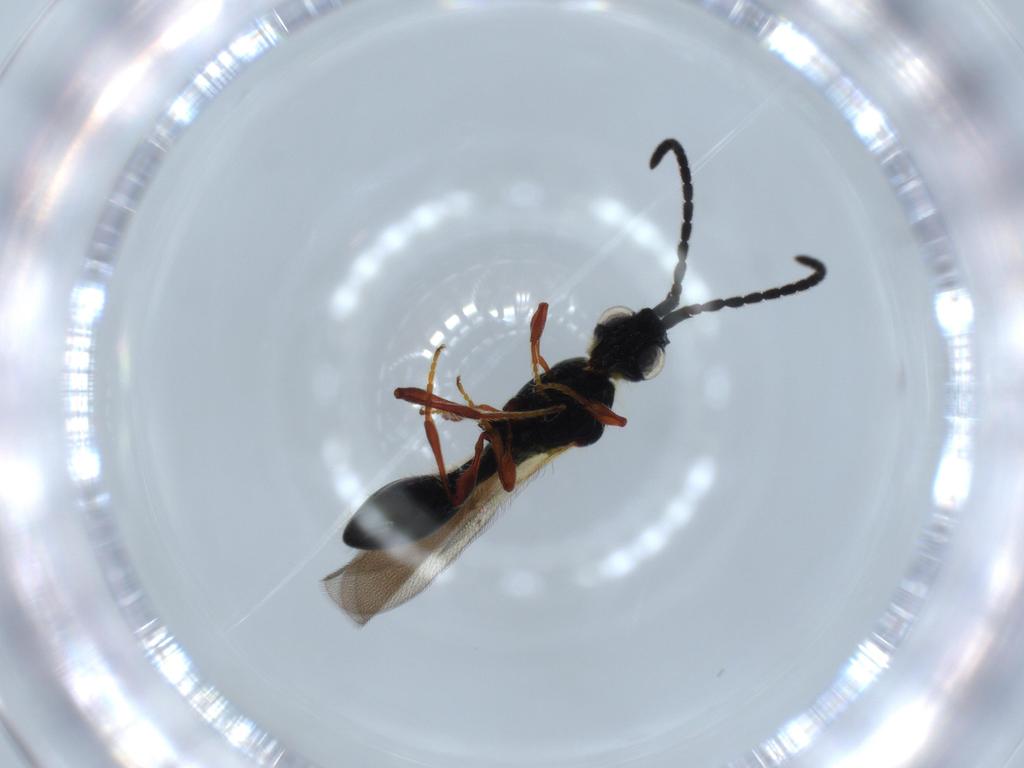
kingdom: Animalia
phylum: Arthropoda
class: Insecta
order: Hymenoptera
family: Diapriidae
